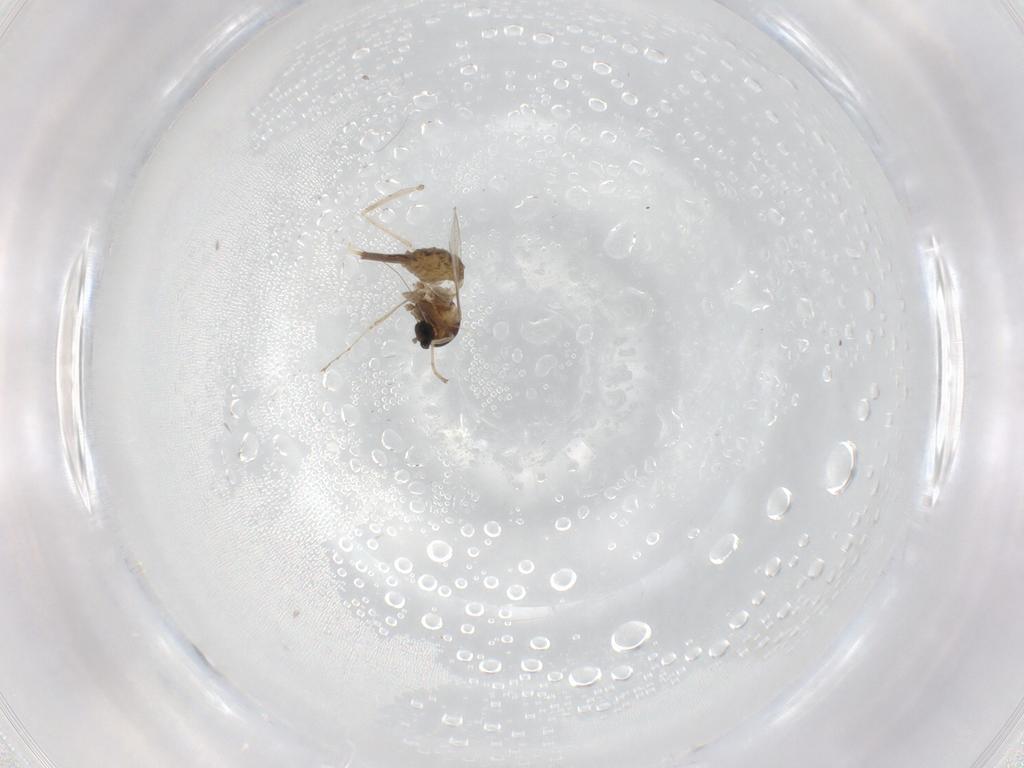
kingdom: Animalia
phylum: Arthropoda
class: Insecta
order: Diptera
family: Cecidomyiidae
